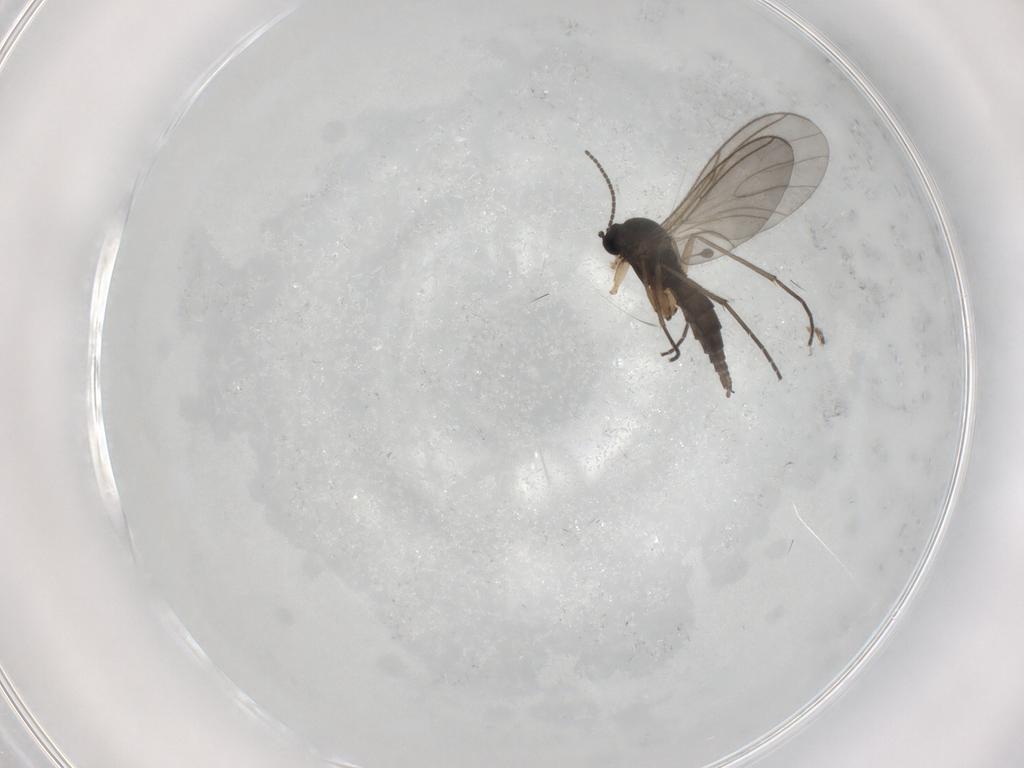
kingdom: Animalia
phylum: Arthropoda
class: Insecta
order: Diptera
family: Sciaridae
